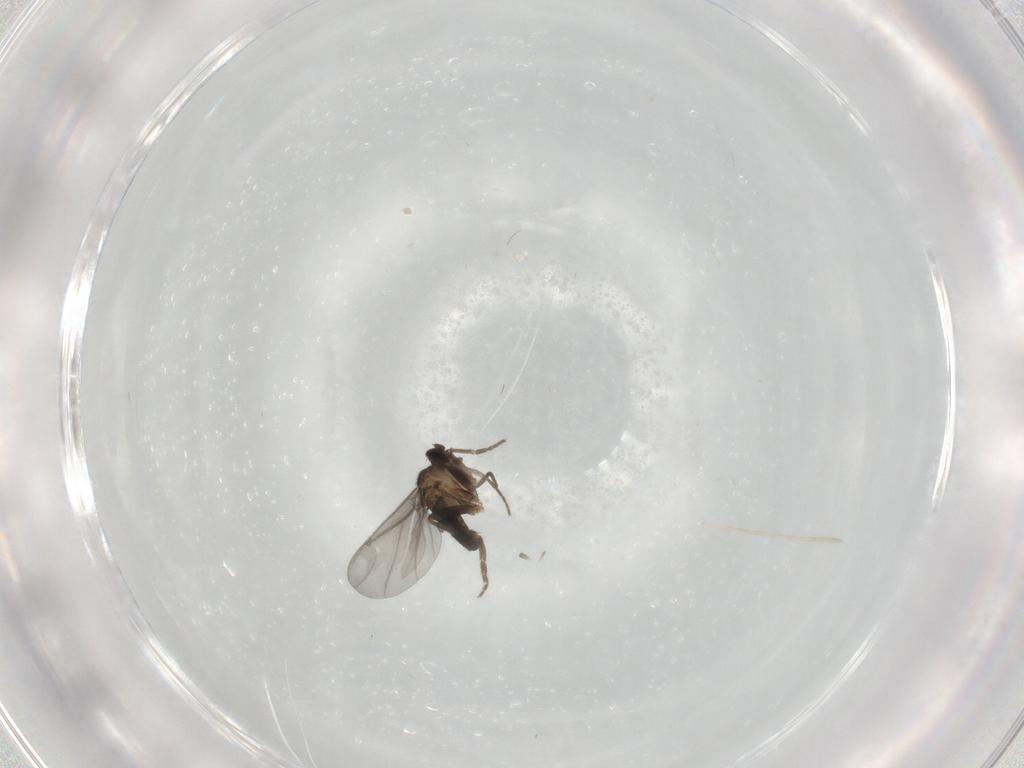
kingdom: Animalia
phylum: Arthropoda
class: Insecta
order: Diptera
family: Phoridae
